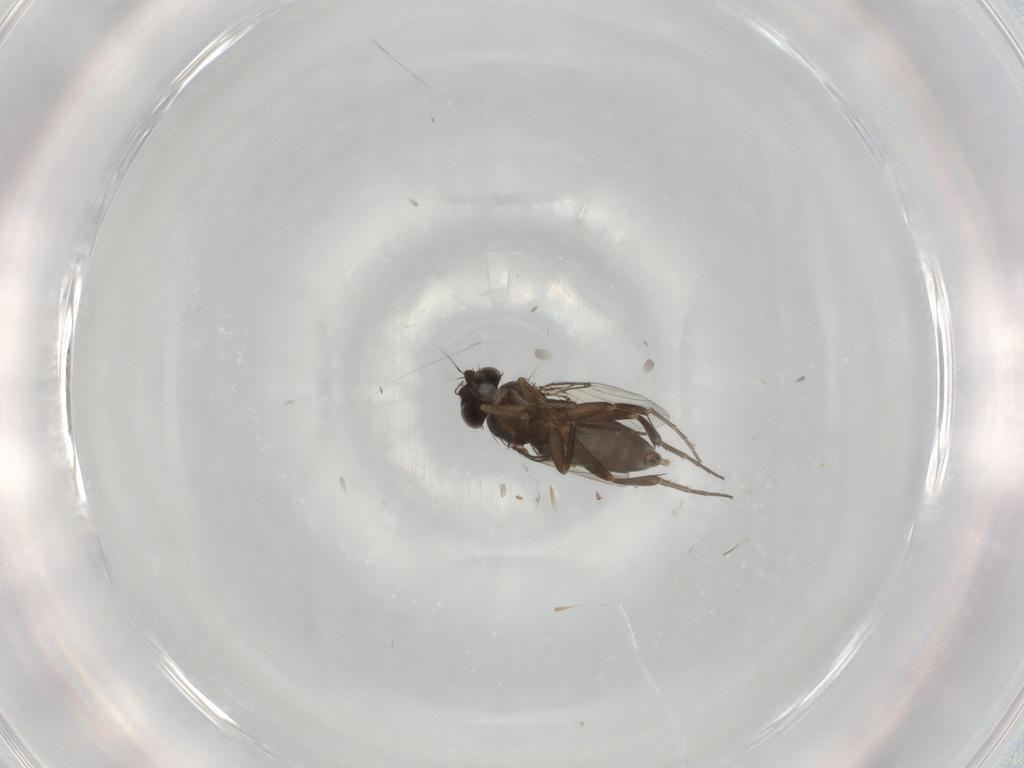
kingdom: Animalia
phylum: Arthropoda
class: Insecta
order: Diptera
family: Phoridae
